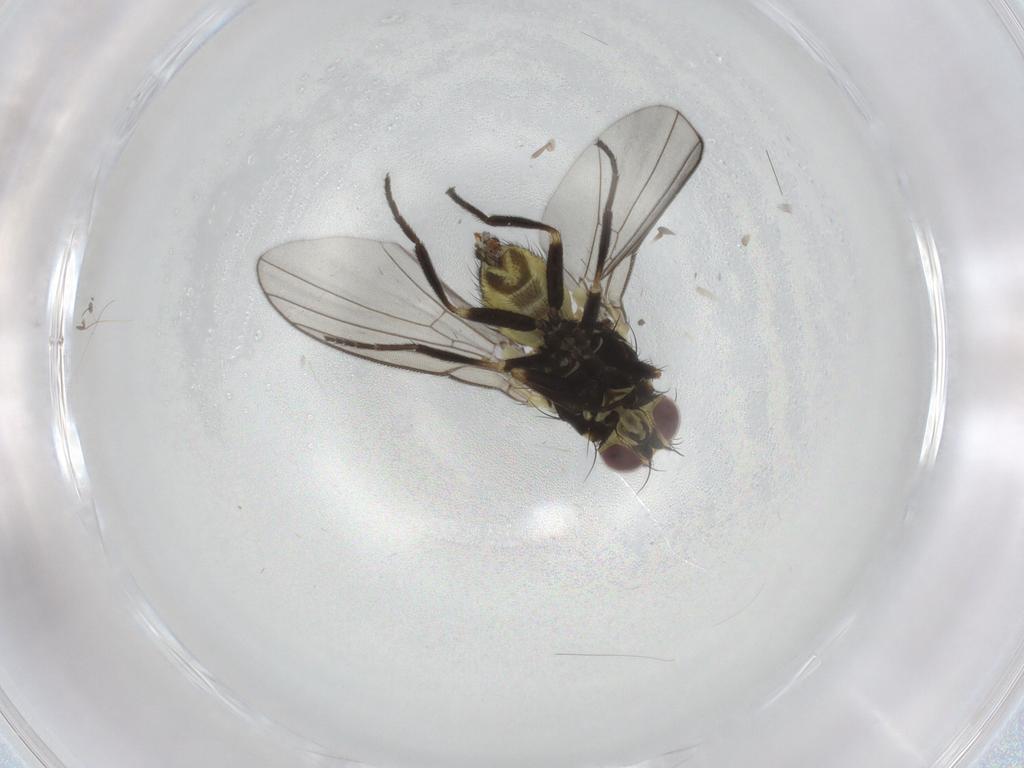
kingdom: Animalia
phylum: Arthropoda
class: Insecta
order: Diptera
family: Agromyzidae
